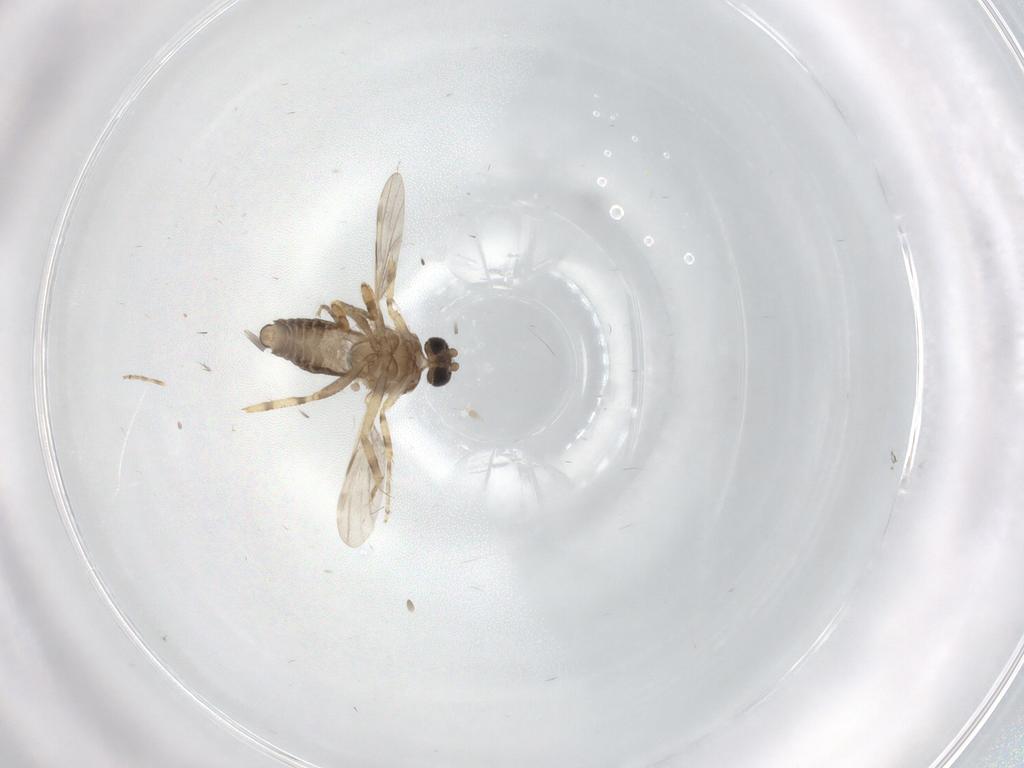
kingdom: Animalia
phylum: Arthropoda
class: Insecta
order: Diptera
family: Ceratopogonidae
